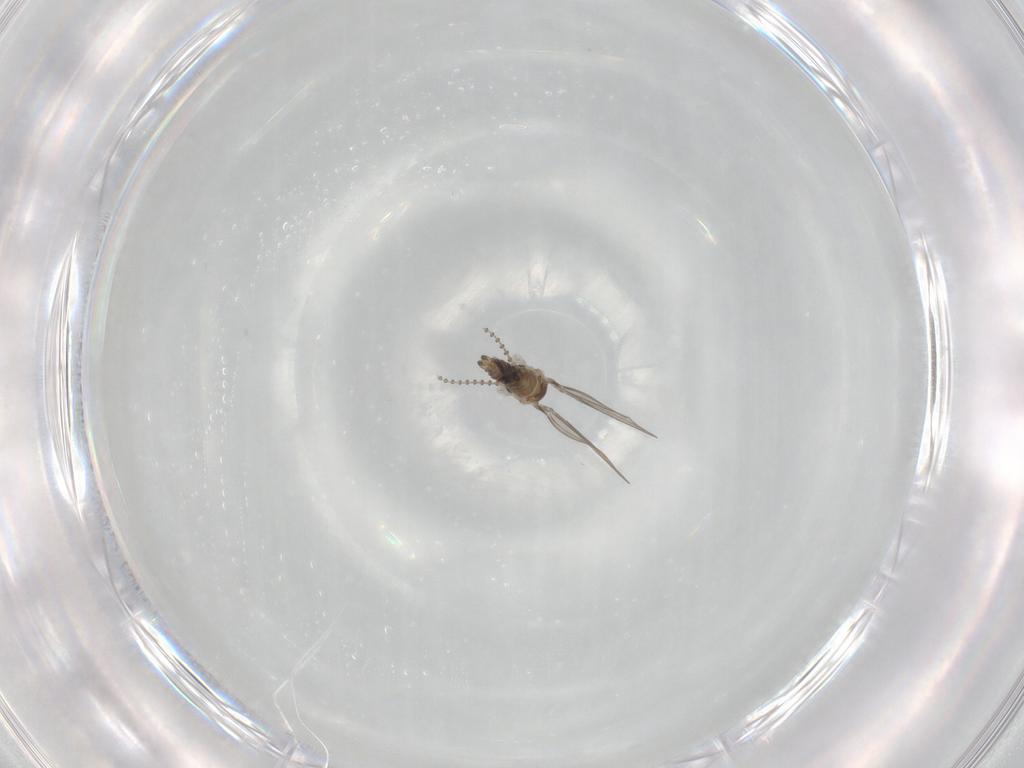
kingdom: Animalia
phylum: Arthropoda
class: Insecta
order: Diptera
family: Psychodidae
